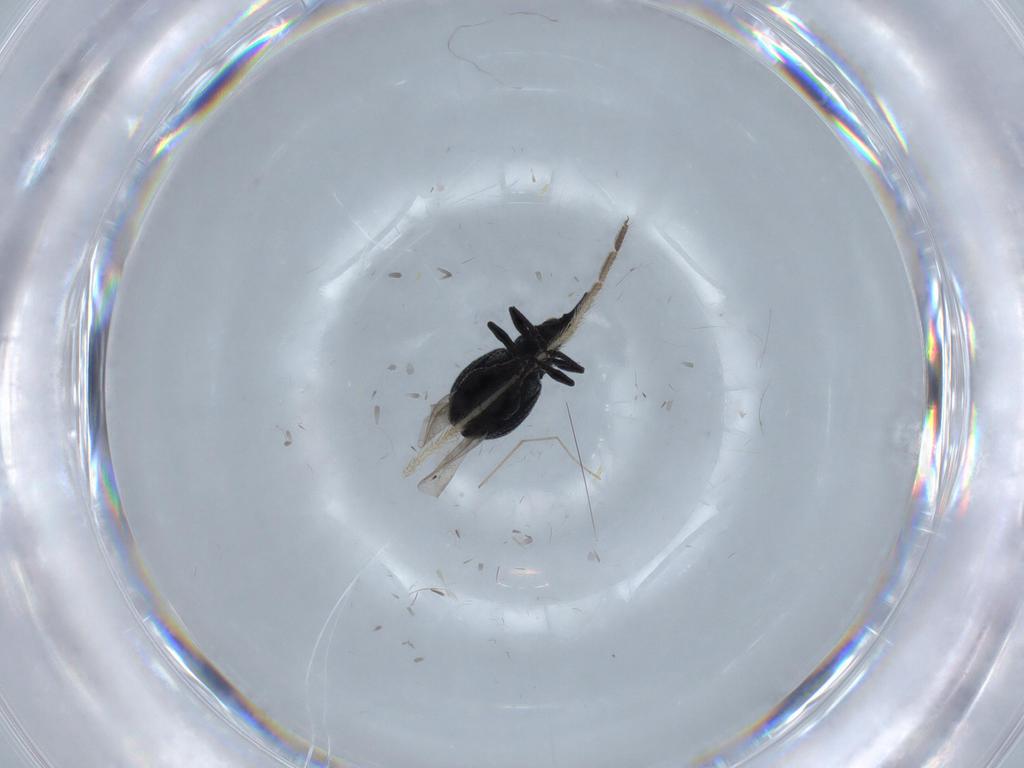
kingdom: Animalia
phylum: Arthropoda
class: Insecta
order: Coleoptera
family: Brentidae
